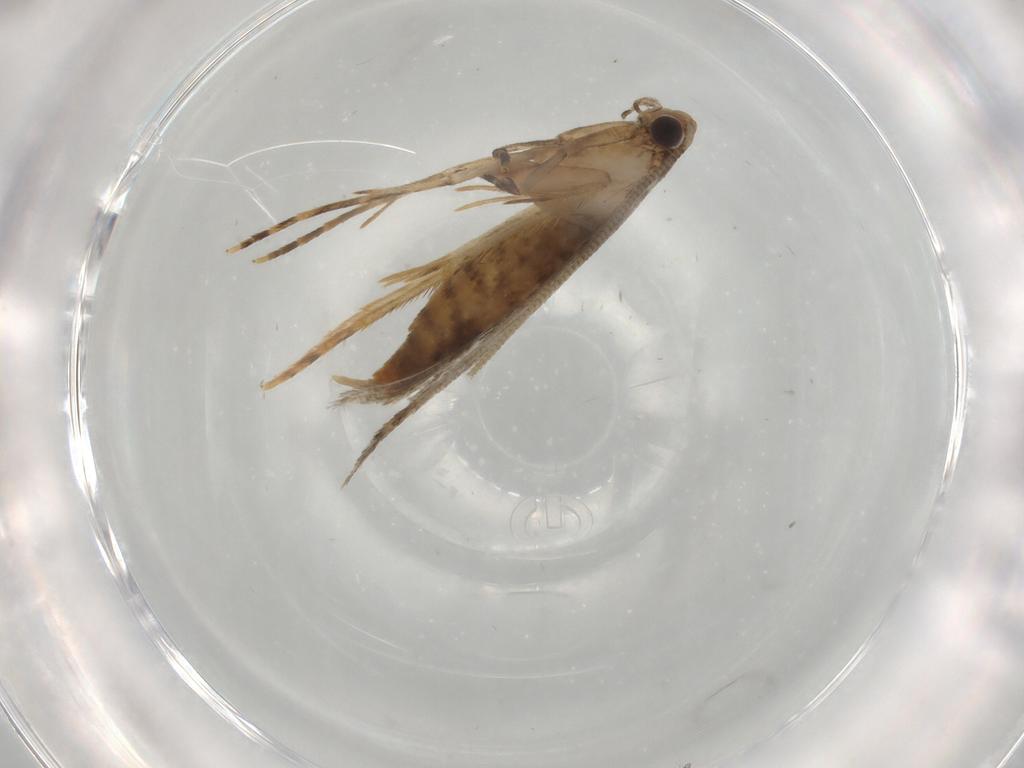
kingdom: Animalia
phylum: Arthropoda
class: Insecta
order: Lepidoptera
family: Tineidae
